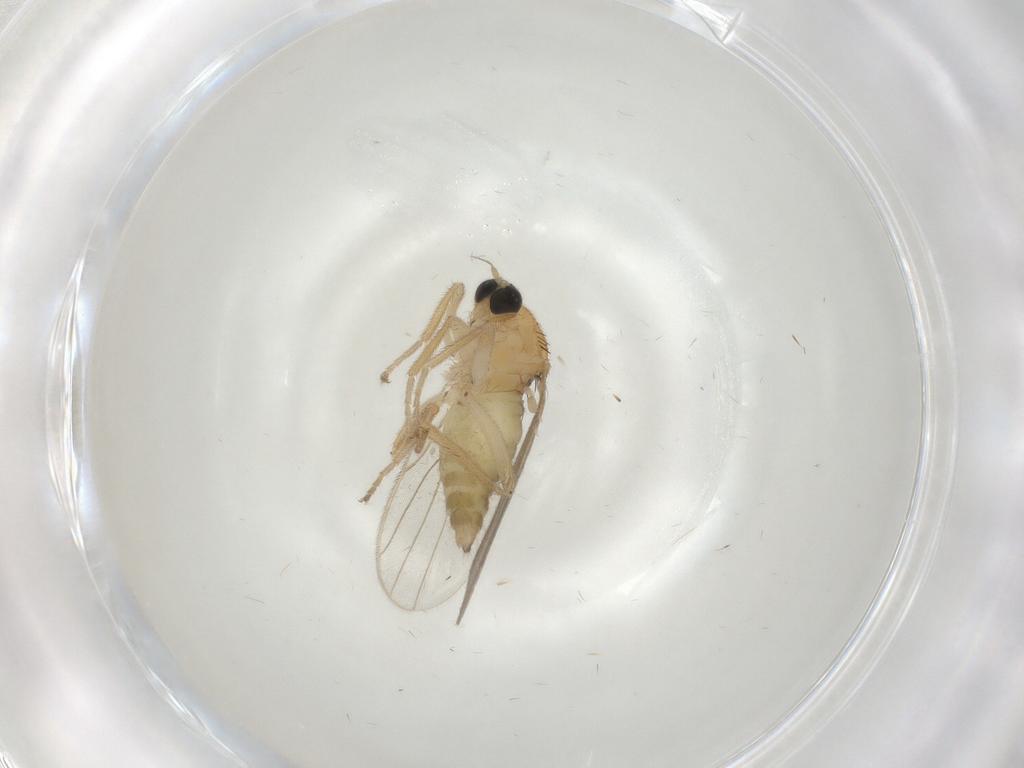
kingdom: Animalia
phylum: Arthropoda
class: Insecta
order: Diptera
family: Hybotidae
